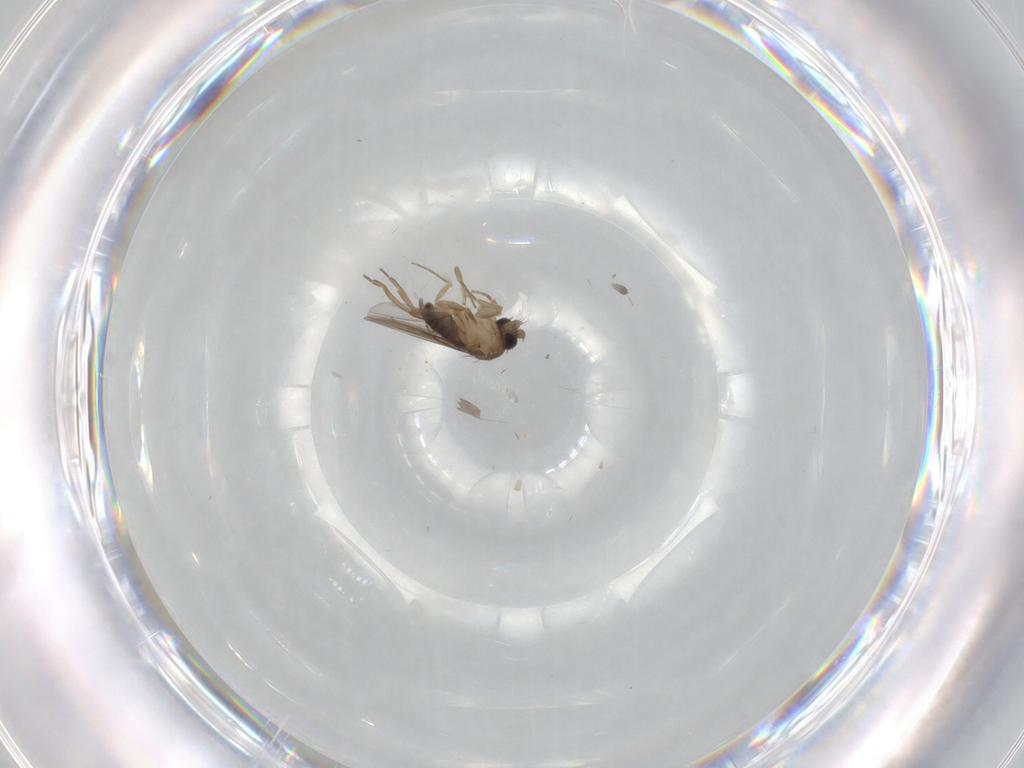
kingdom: Animalia
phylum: Arthropoda
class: Insecta
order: Diptera
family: Cecidomyiidae
